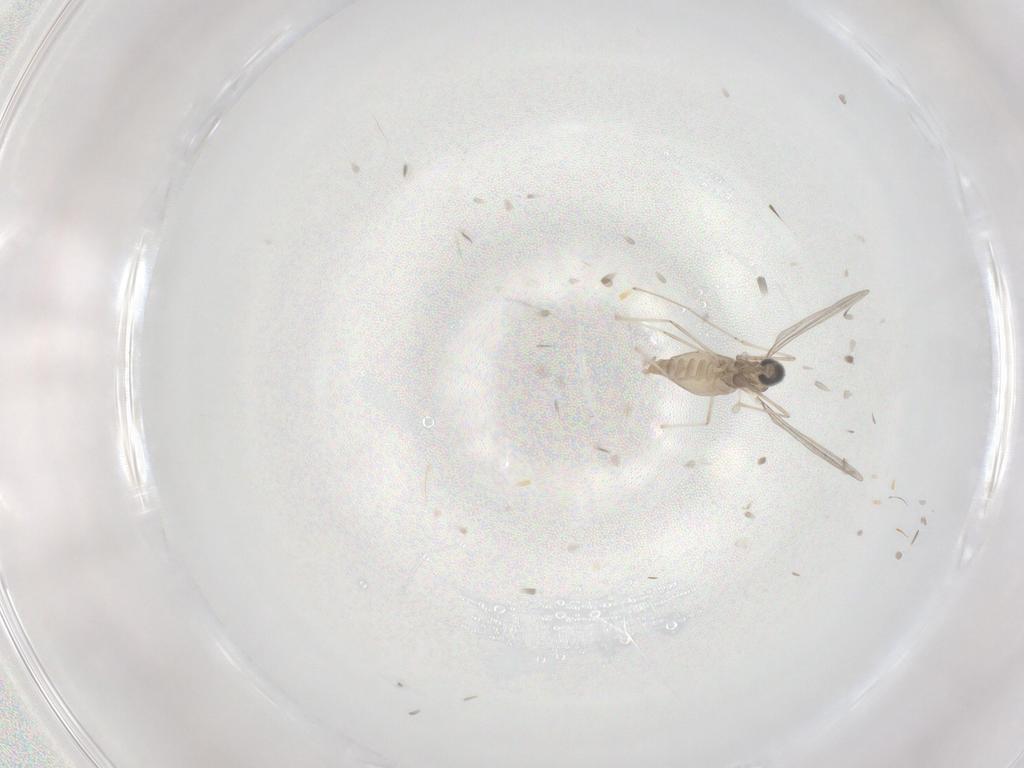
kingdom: Animalia
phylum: Arthropoda
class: Insecta
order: Diptera
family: Cecidomyiidae
